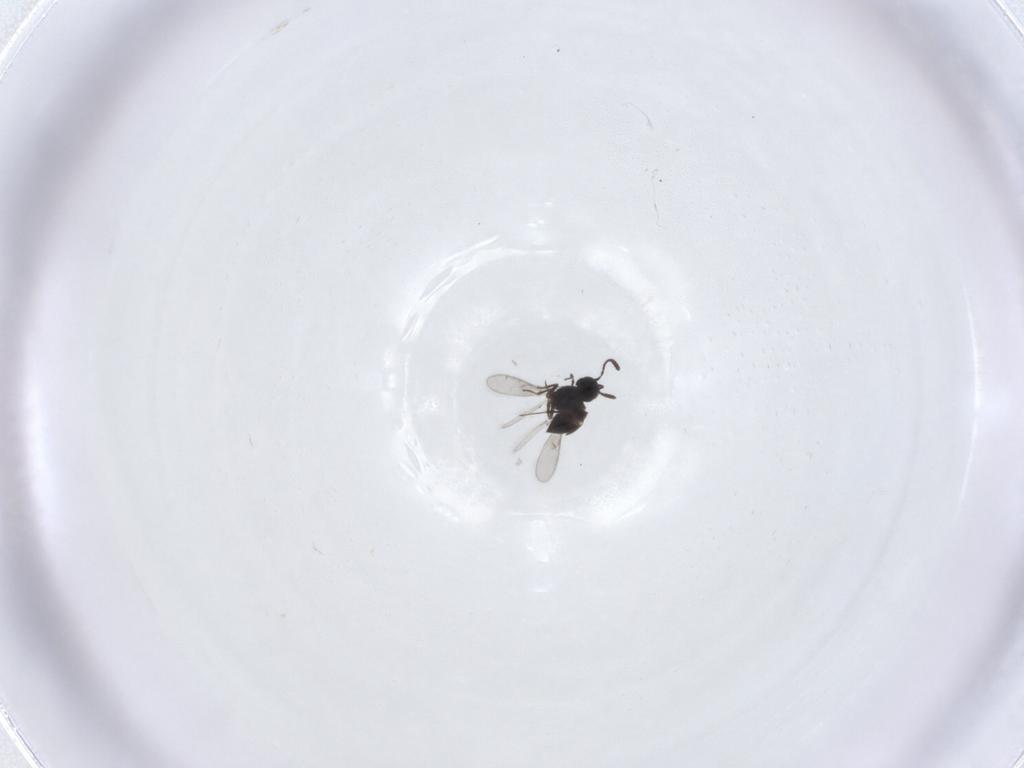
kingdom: Animalia
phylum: Arthropoda
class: Insecta
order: Hymenoptera
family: Scelionidae
